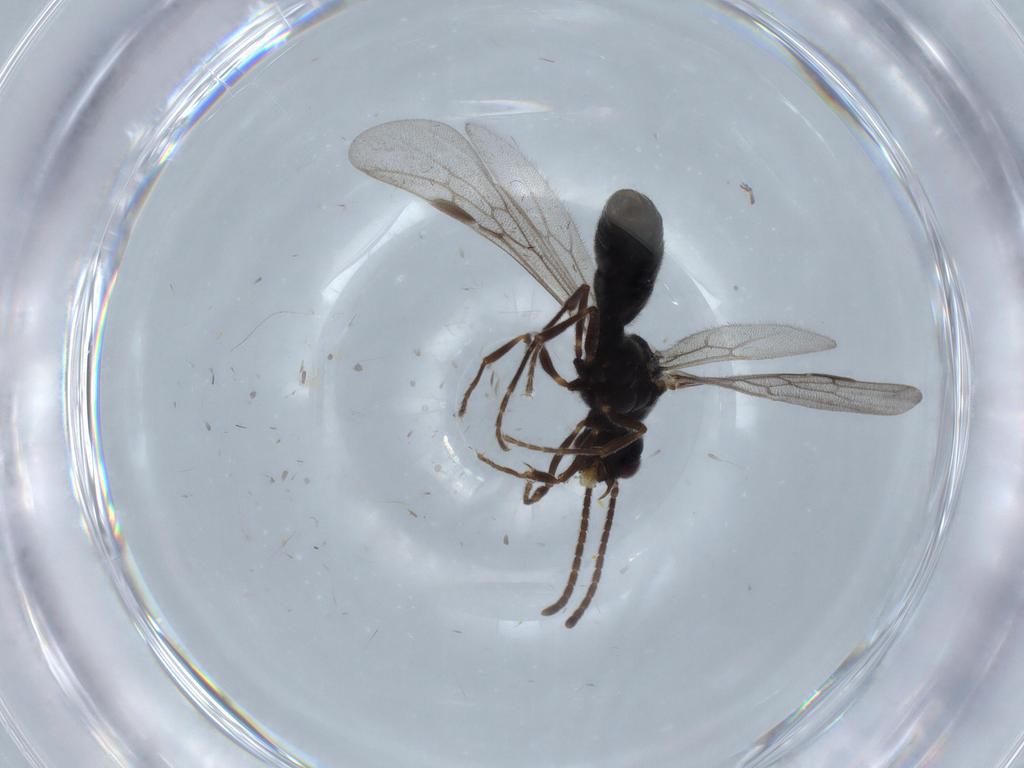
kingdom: Animalia
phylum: Arthropoda
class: Insecta
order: Hymenoptera
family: Formicidae
